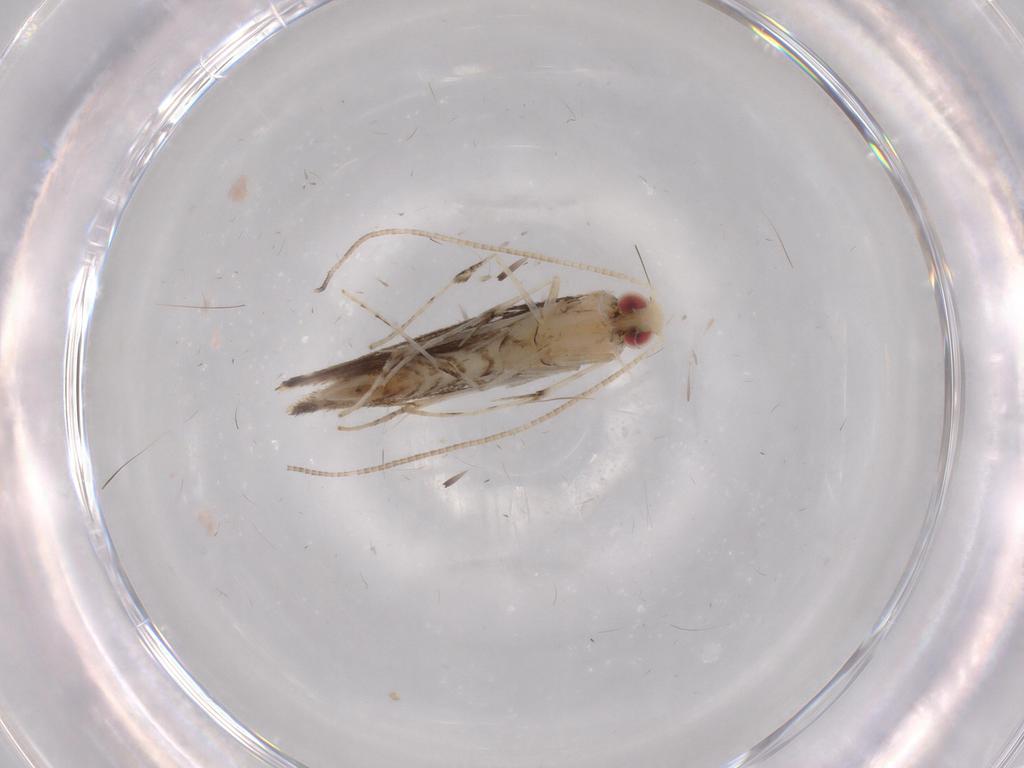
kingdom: Animalia
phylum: Arthropoda
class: Insecta
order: Lepidoptera
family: Gracillariidae
